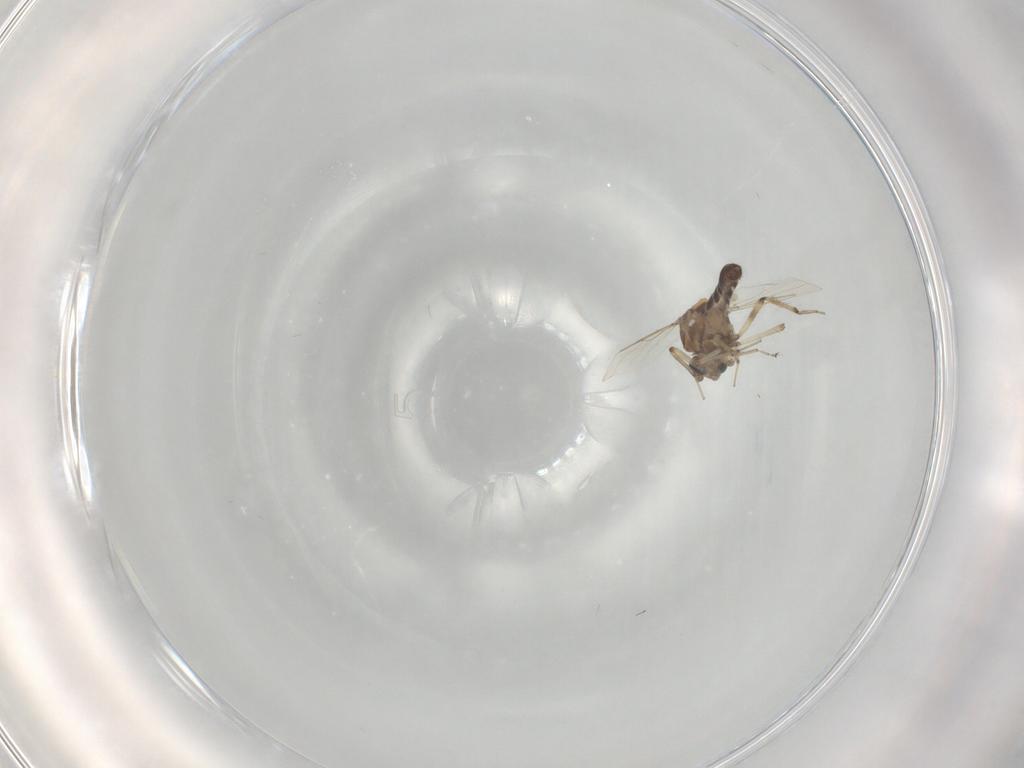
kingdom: Animalia
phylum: Arthropoda
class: Insecta
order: Diptera
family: Ceratopogonidae
